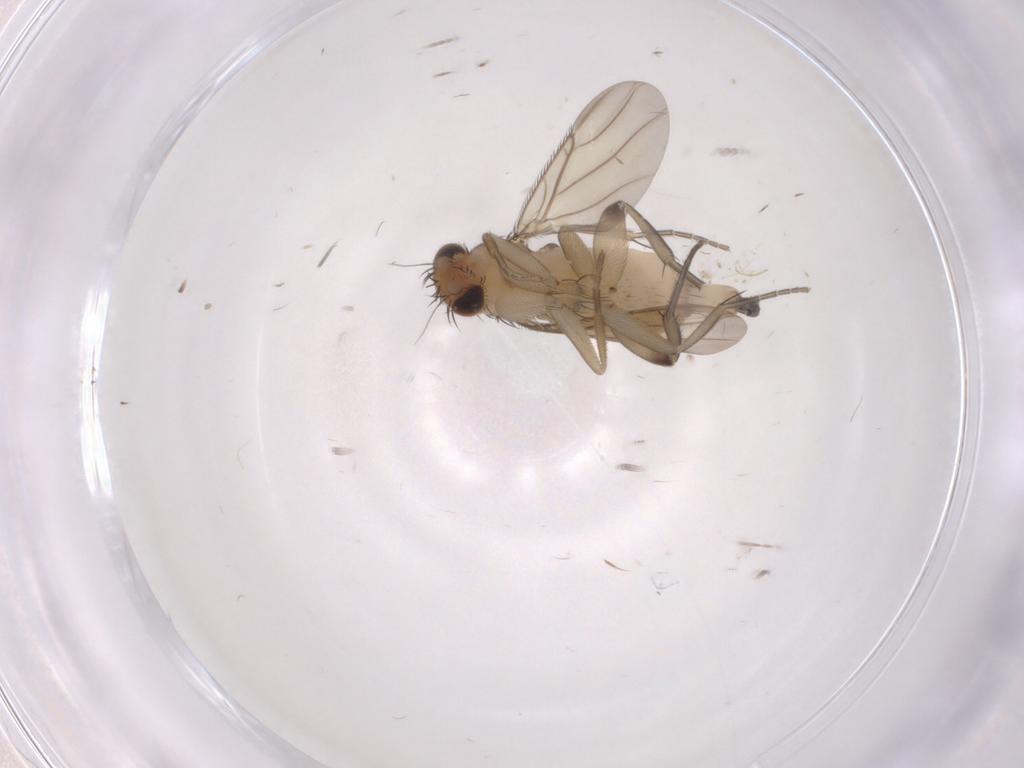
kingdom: Animalia
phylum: Arthropoda
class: Insecta
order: Diptera
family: Phoridae
